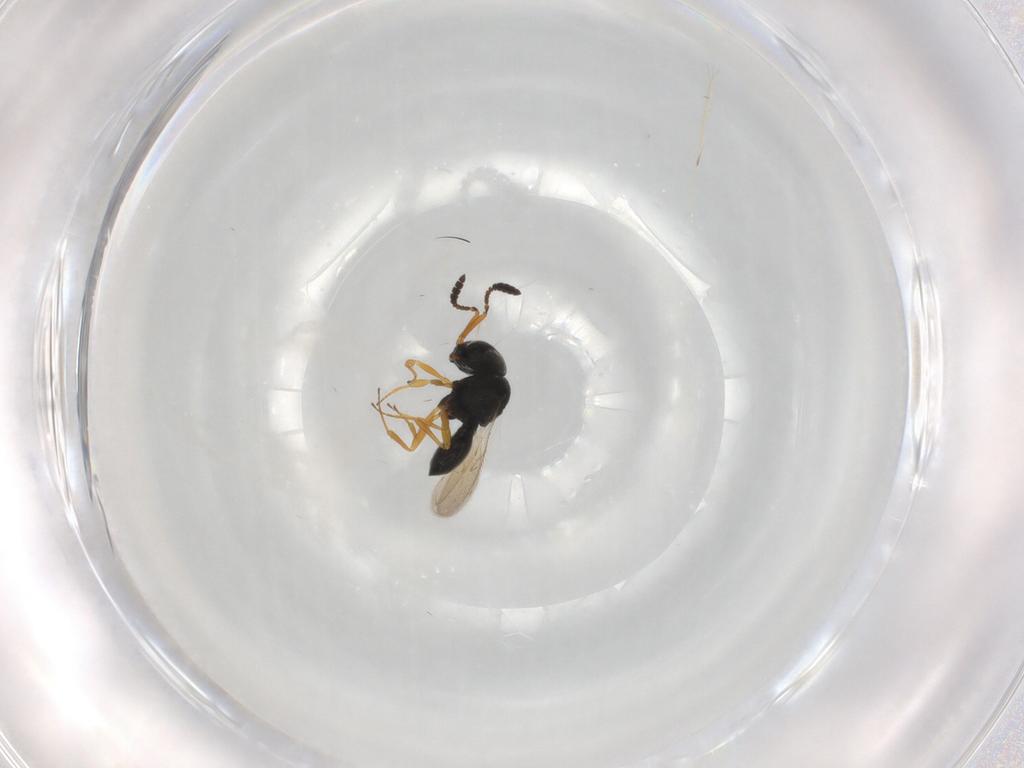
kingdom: Animalia
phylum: Arthropoda
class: Insecta
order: Hymenoptera
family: Scelionidae
